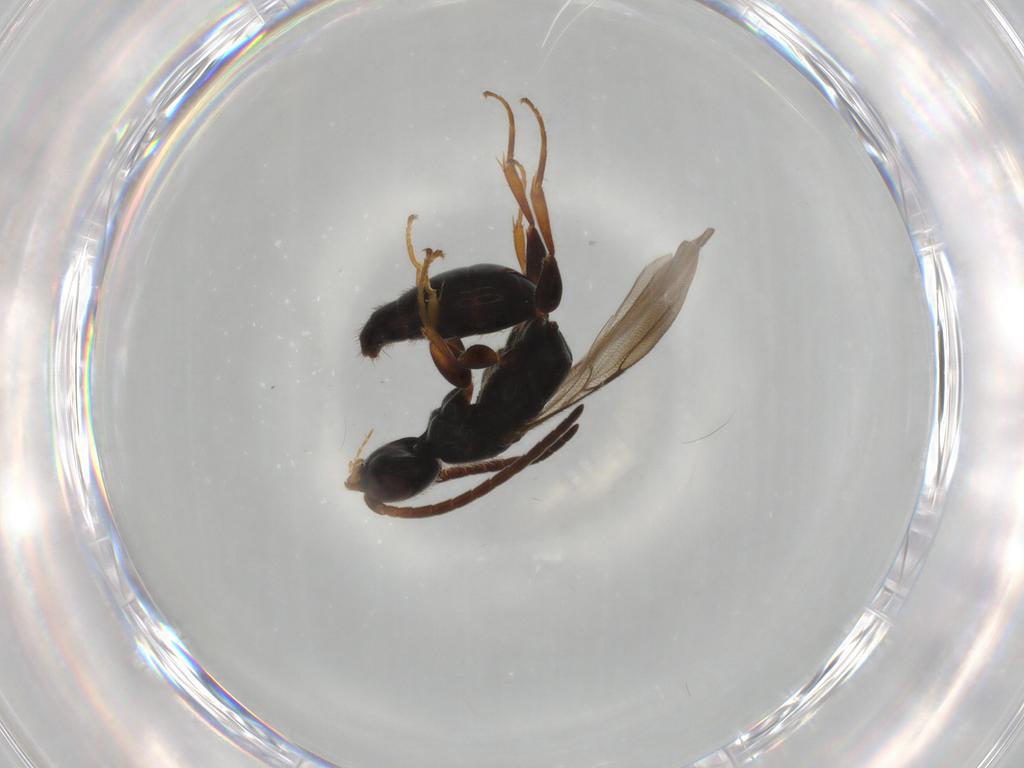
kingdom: Animalia
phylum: Arthropoda
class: Insecta
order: Hymenoptera
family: Bethylidae
